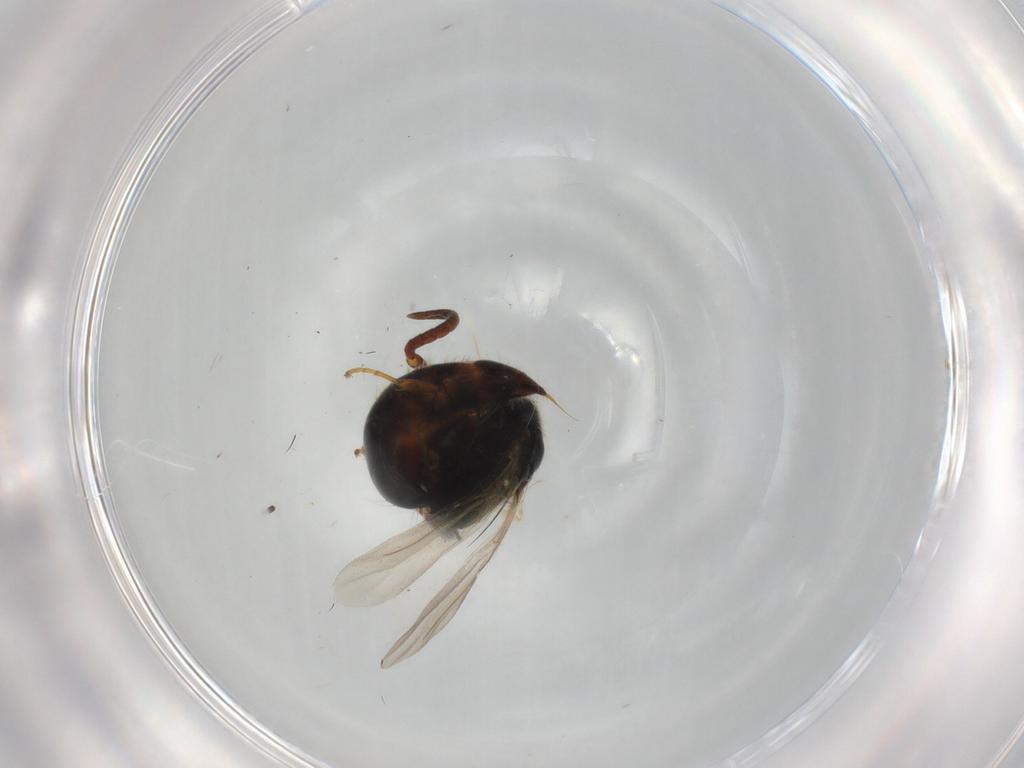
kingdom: Animalia
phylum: Arthropoda
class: Insecta
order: Hymenoptera
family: Bethylidae
